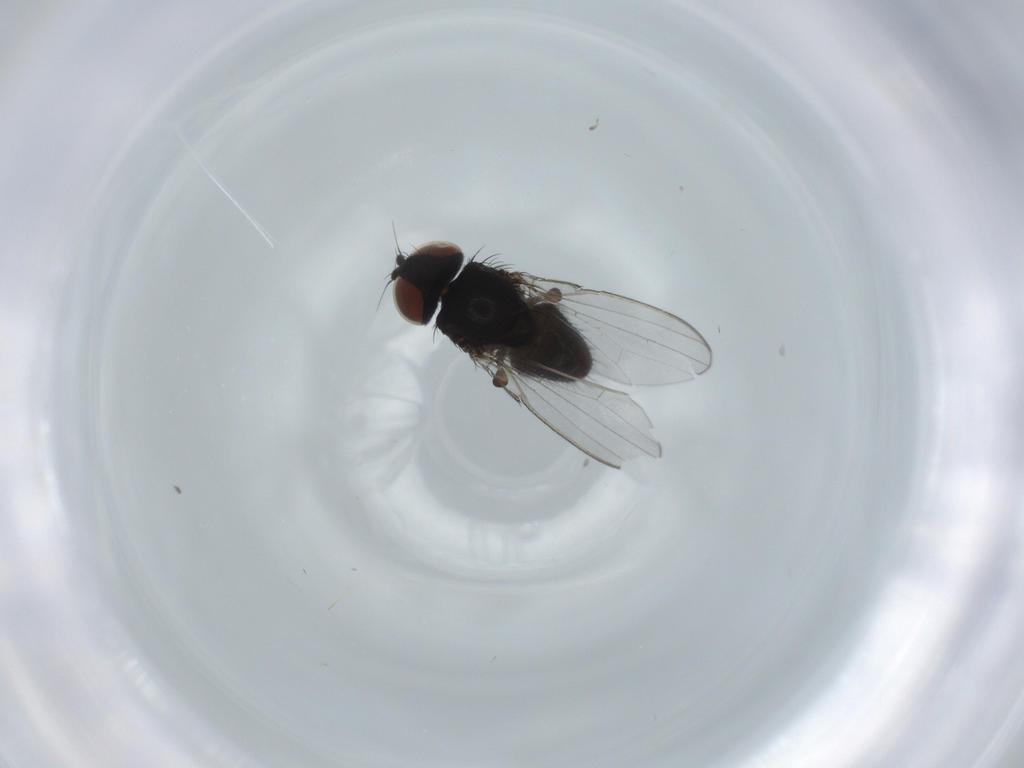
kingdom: Animalia
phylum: Arthropoda
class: Insecta
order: Diptera
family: Milichiidae
